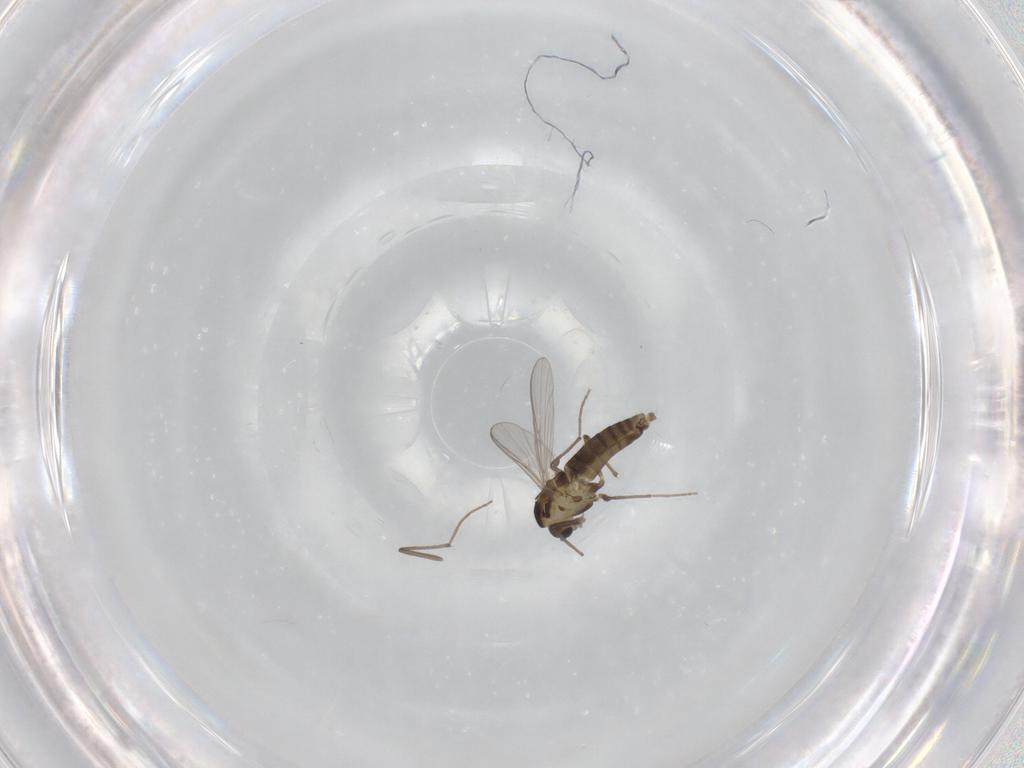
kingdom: Animalia
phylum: Arthropoda
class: Insecta
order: Diptera
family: Chironomidae
